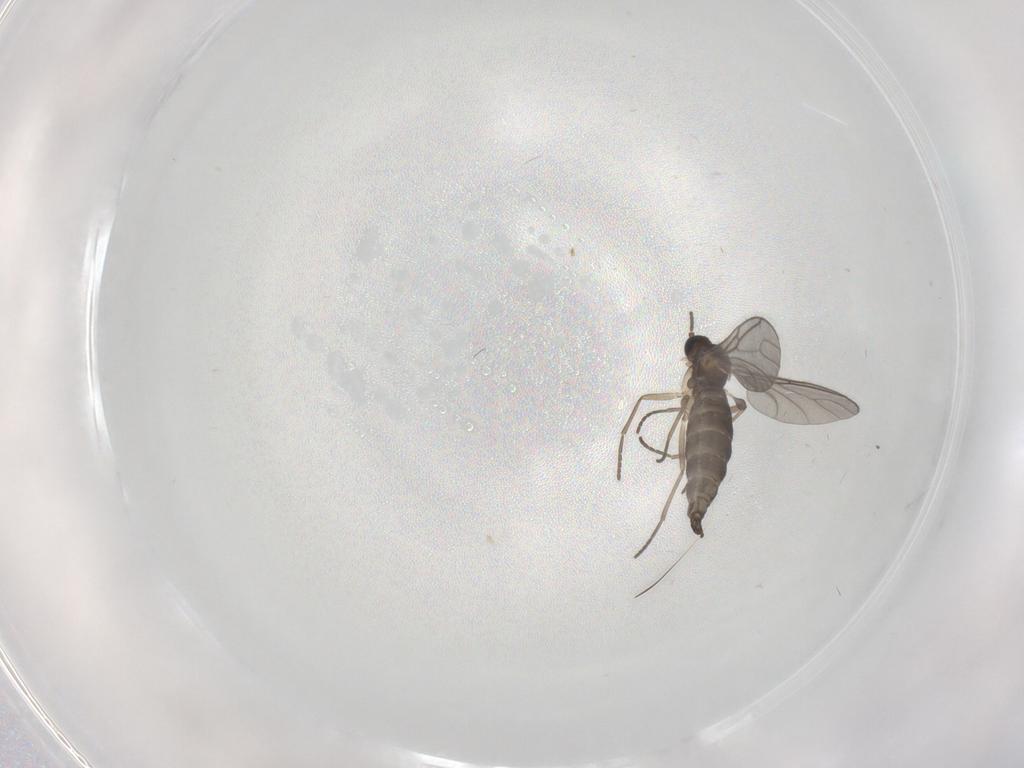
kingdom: Animalia
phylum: Arthropoda
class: Insecta
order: Diptera
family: Sciaridae
